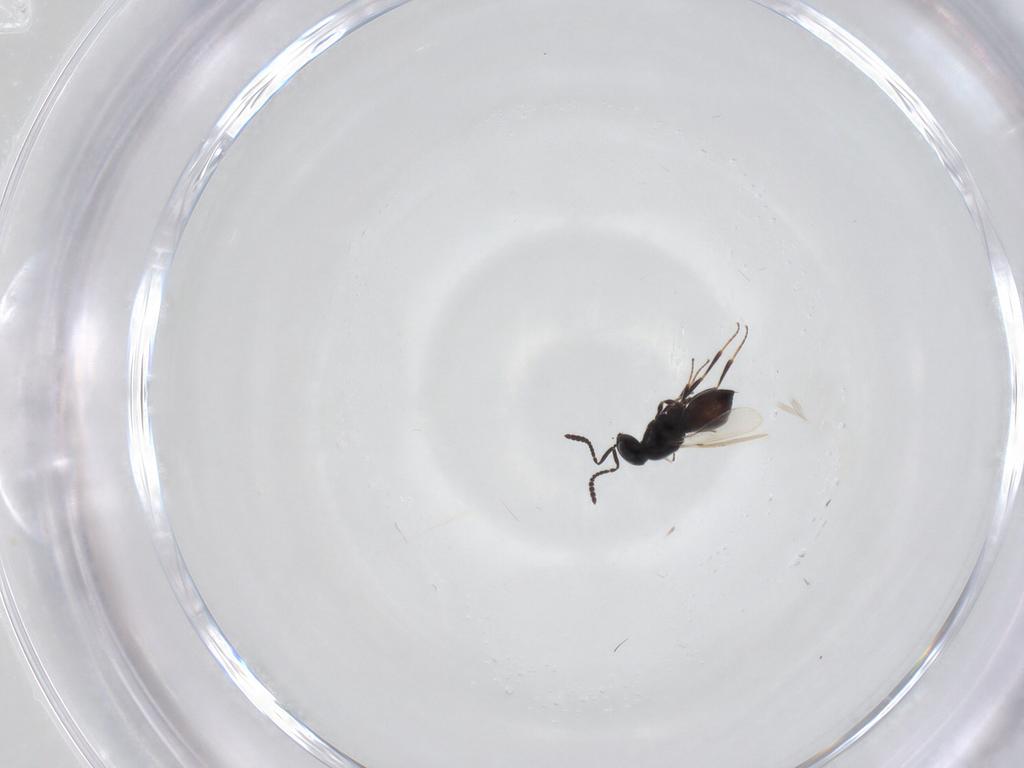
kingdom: Animalia
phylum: Arthropoda
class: Insecta
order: Hymenoptera
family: Scelionidae
